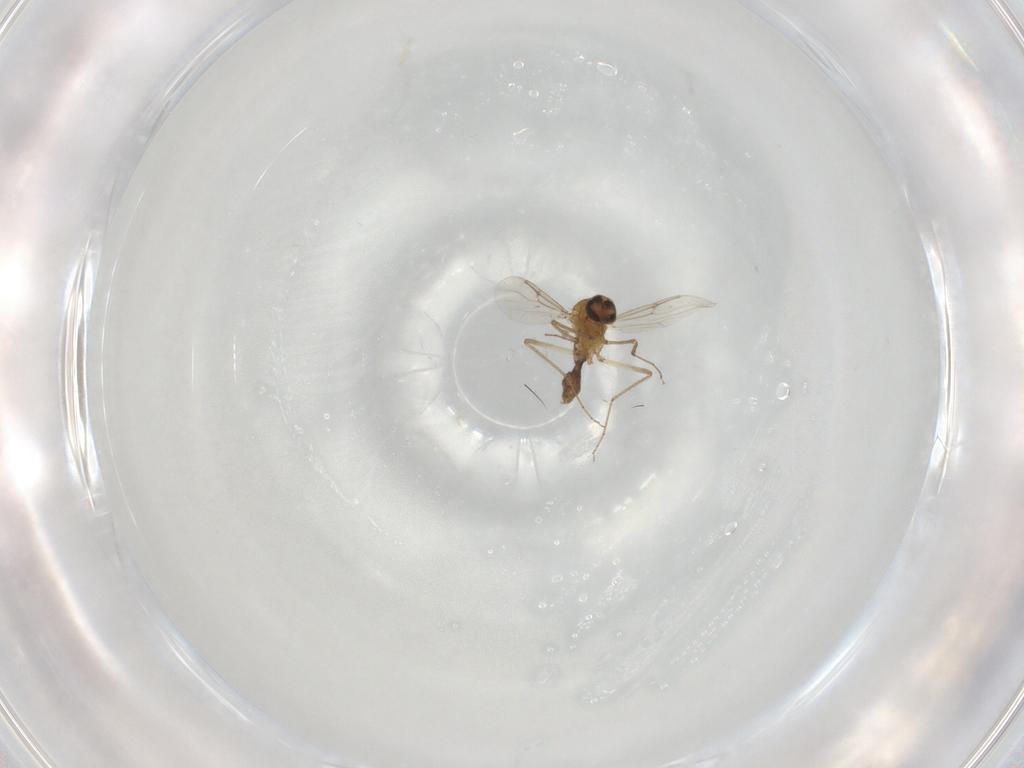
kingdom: Animalia
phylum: Arthropoda
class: Insecta
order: Diptera
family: Ceratopogonidae
